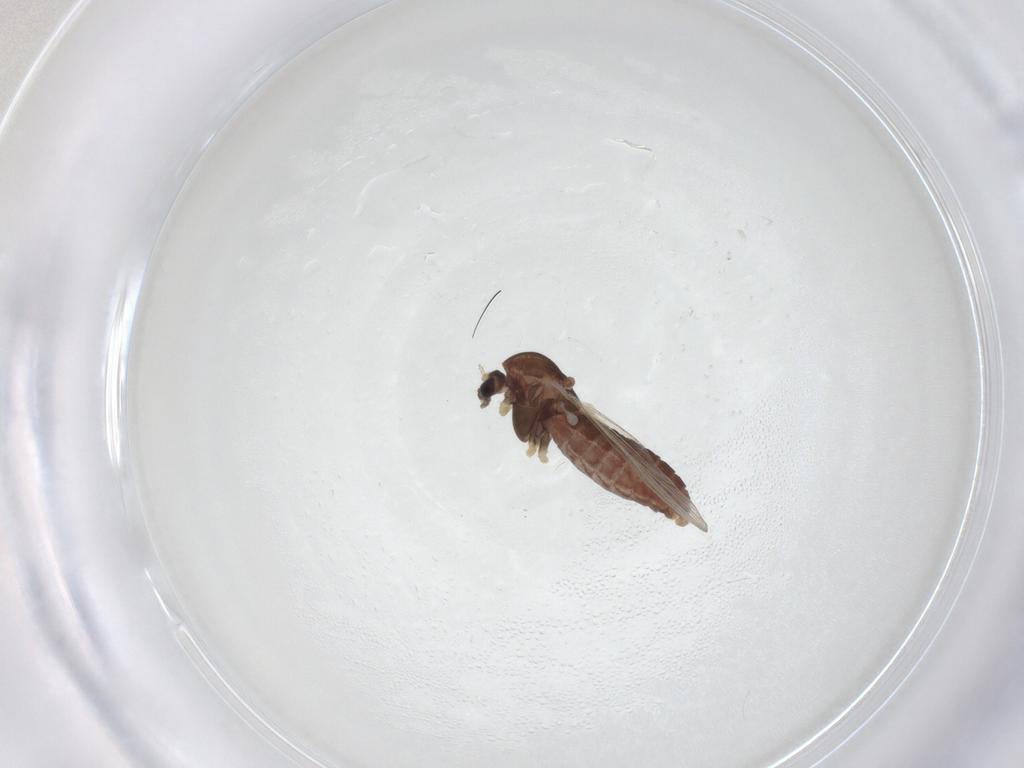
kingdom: Animalia
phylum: Arthropoda
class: Insecta
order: Diptera
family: Chironomidae
